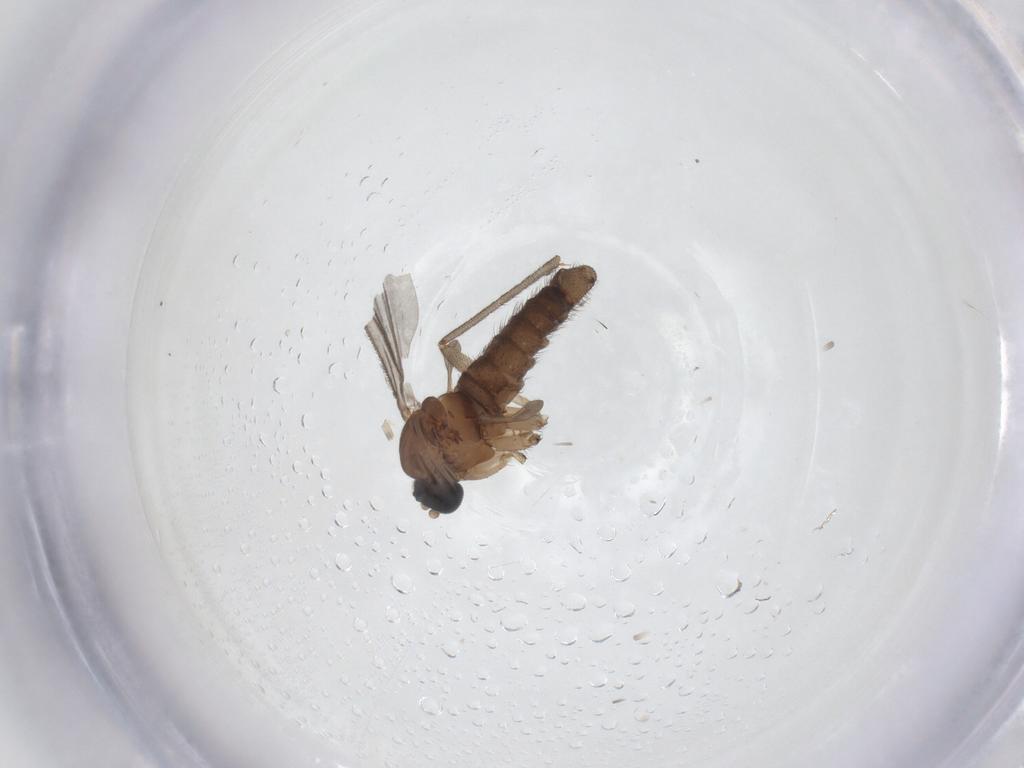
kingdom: Animalia
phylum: Arthropoda
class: Insecta
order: Diptera
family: Sciaridae
